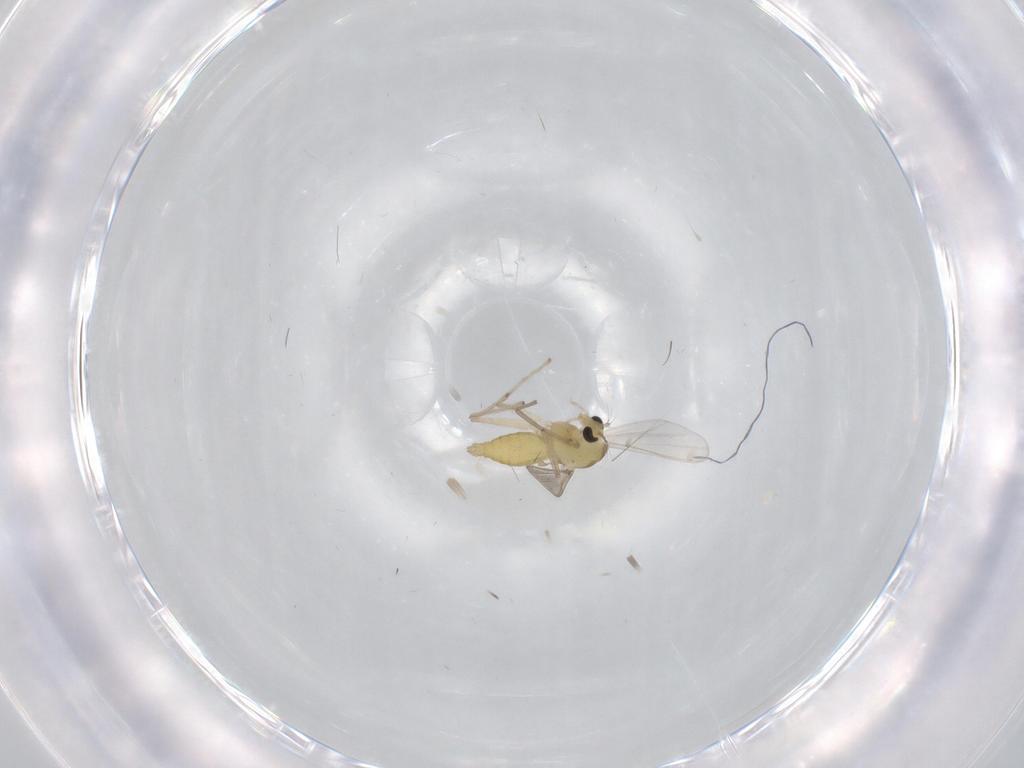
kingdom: Animalia
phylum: Arthropoda
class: Insecta
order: Diptera
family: Chironomidae
